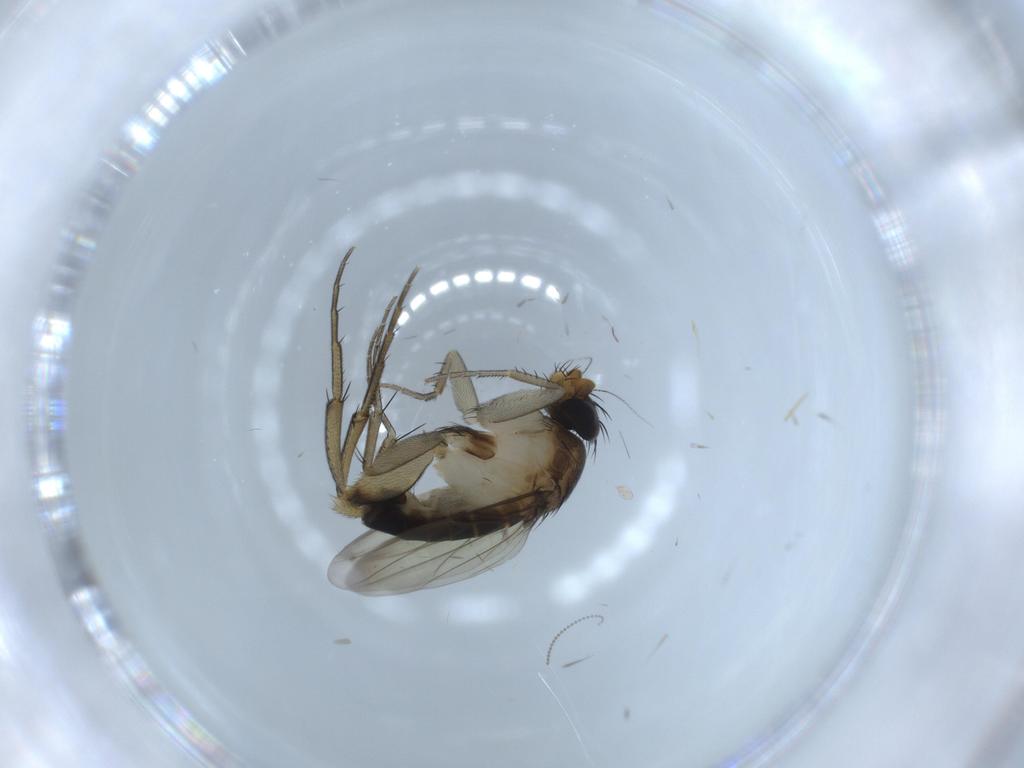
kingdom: Animalia
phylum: Arthropoda
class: Insecta
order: Diptera
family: Phoridae
